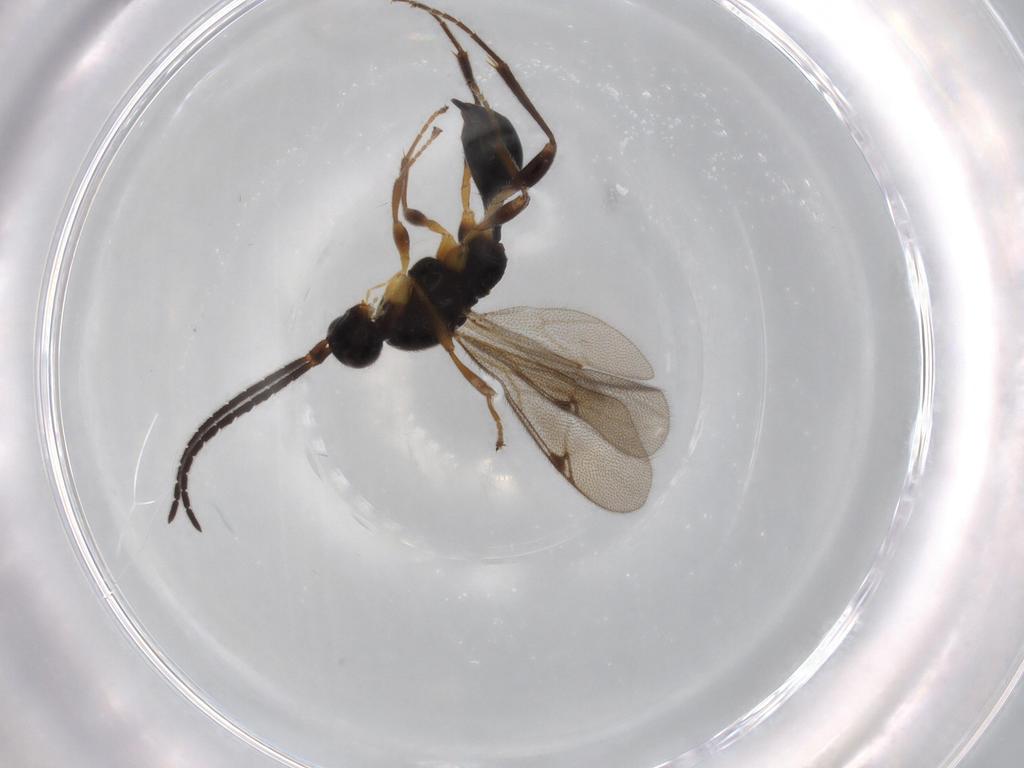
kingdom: Animalia
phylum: Arthropoda
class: Insecta
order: Hymenoptera
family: Proctotrupidae
